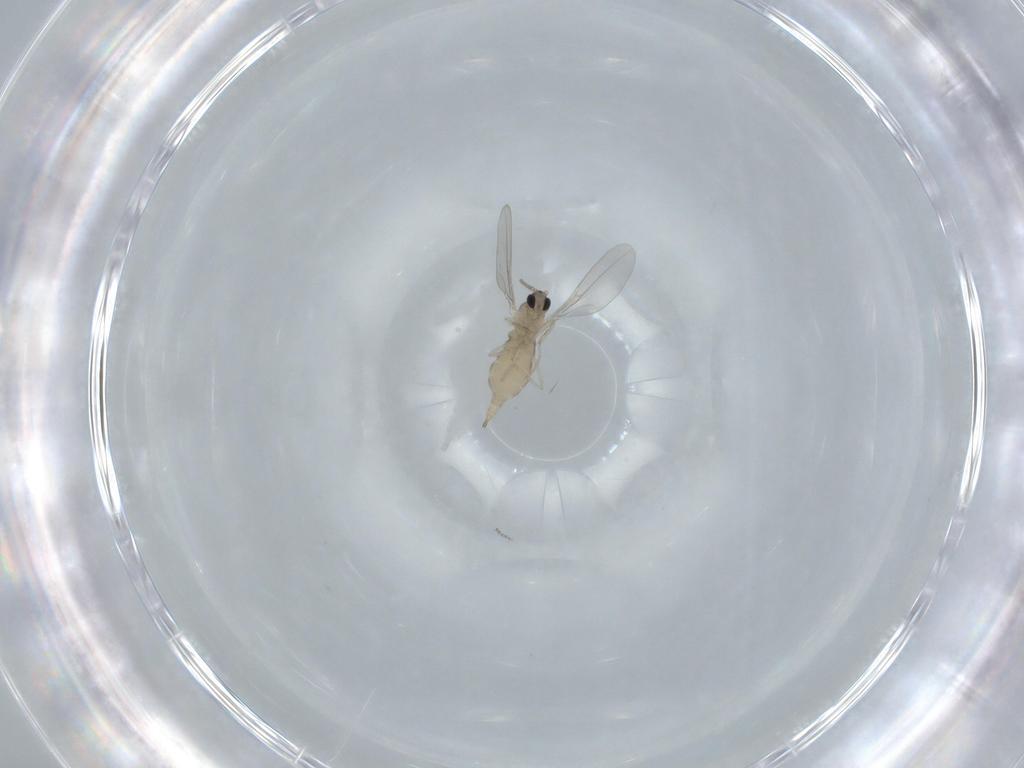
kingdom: Animalia
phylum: Arthropoda
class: Insecta
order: Diptera
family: Cecidomyiidae
